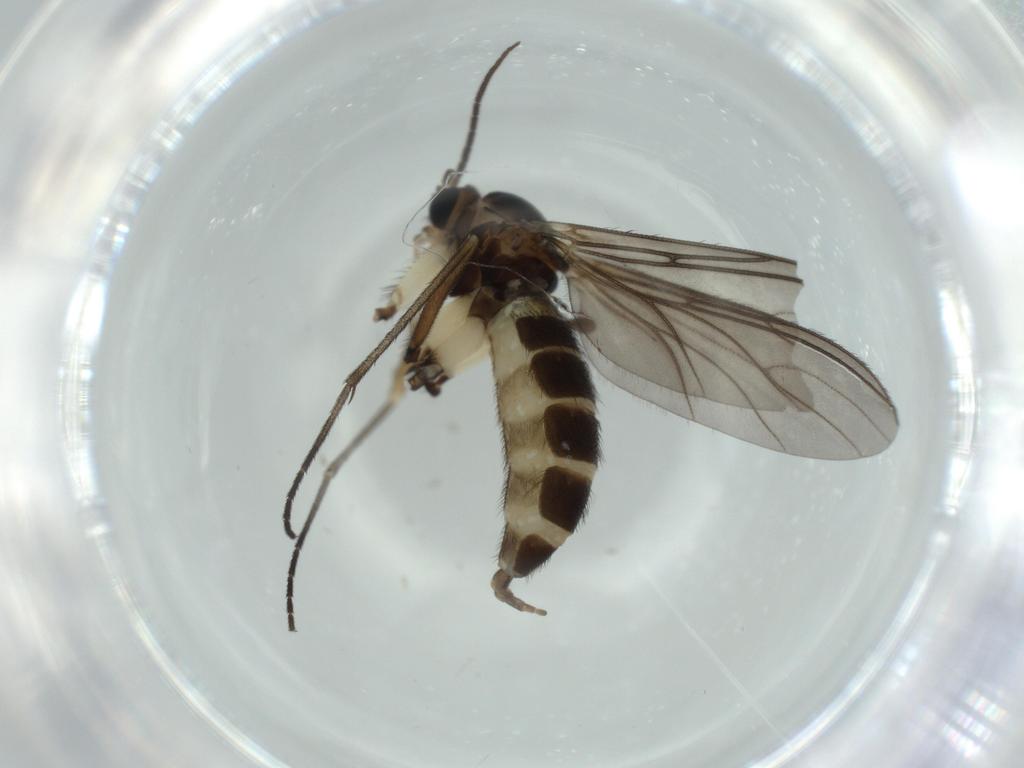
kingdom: Animalia
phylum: Arthropoda
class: Insecta
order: Diptera
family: Sciaridae
